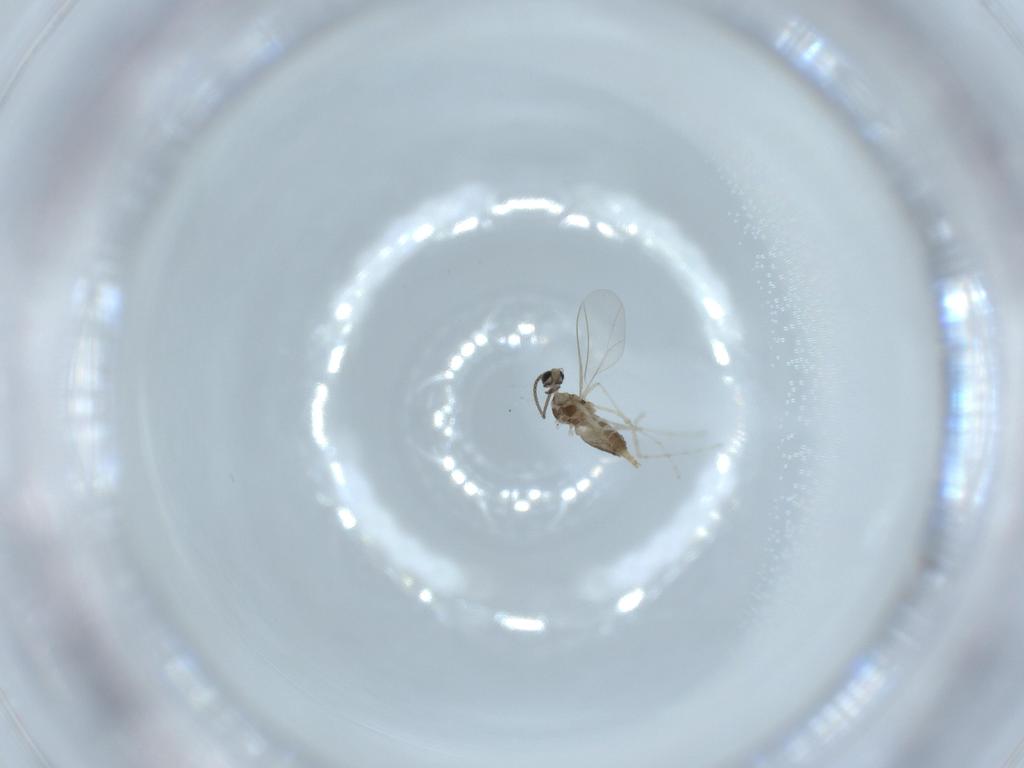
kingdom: Animalia
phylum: Arthropoda
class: Insecta
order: Diptera
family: Cecidomyiidae
